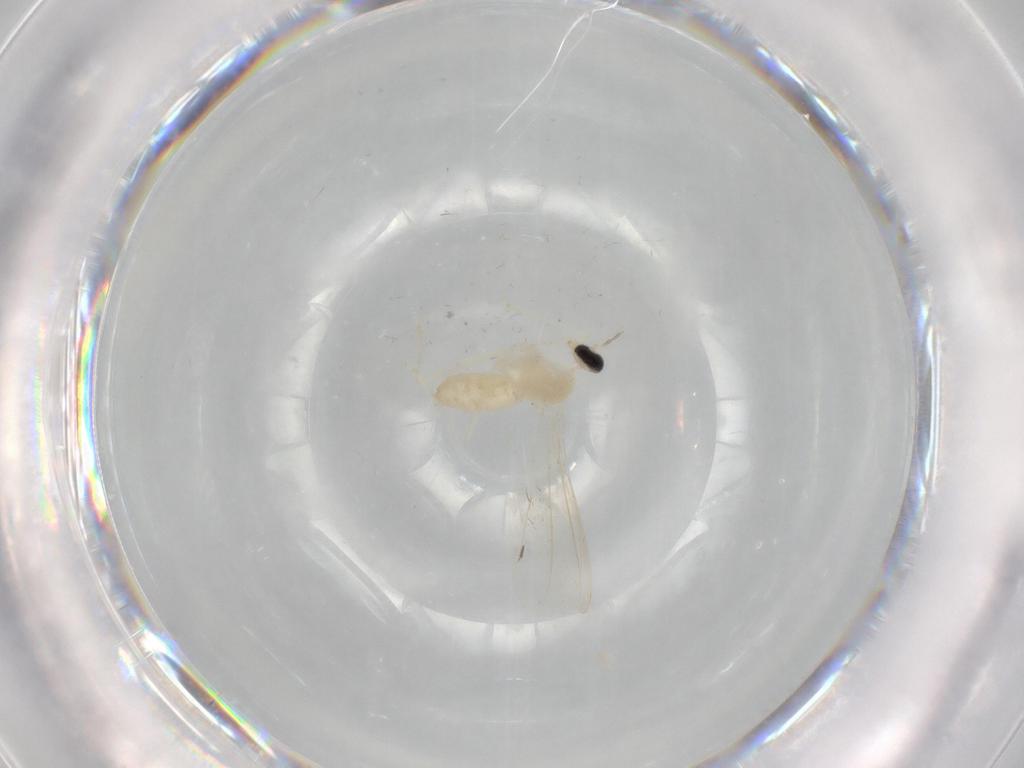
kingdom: Animalia
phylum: Arthropoda
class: Insecta
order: Diptera
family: Cecidomyiidae
